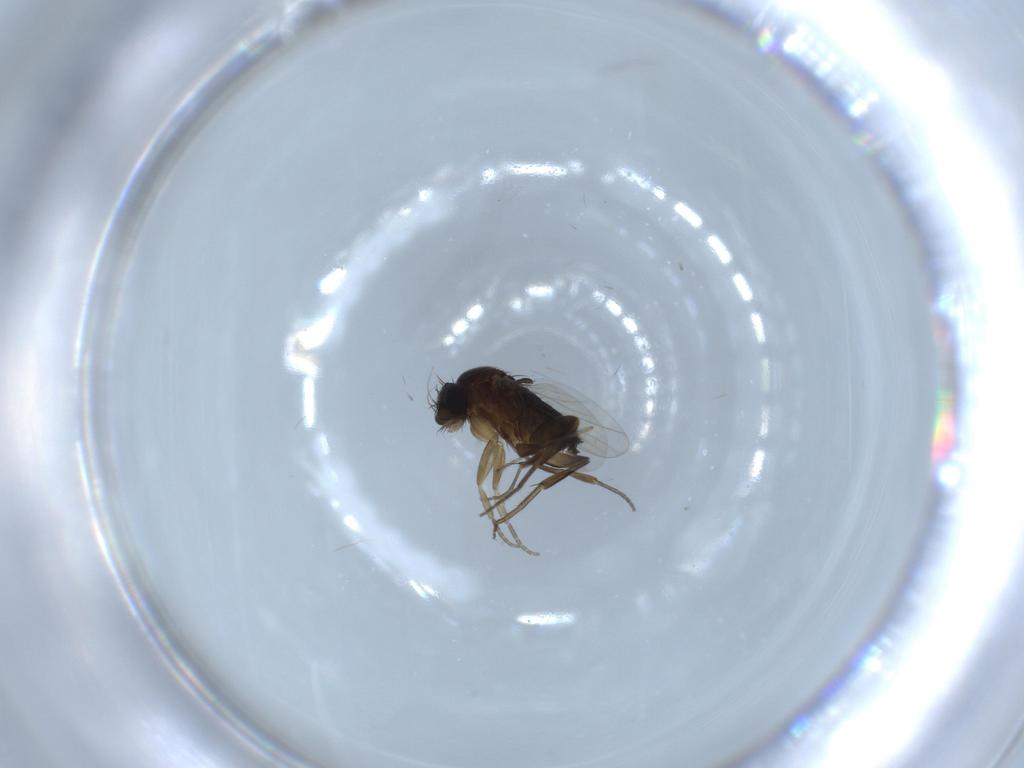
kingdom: Animalia
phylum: Arthropoda
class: Insecta
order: Diptera
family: Phoridae
